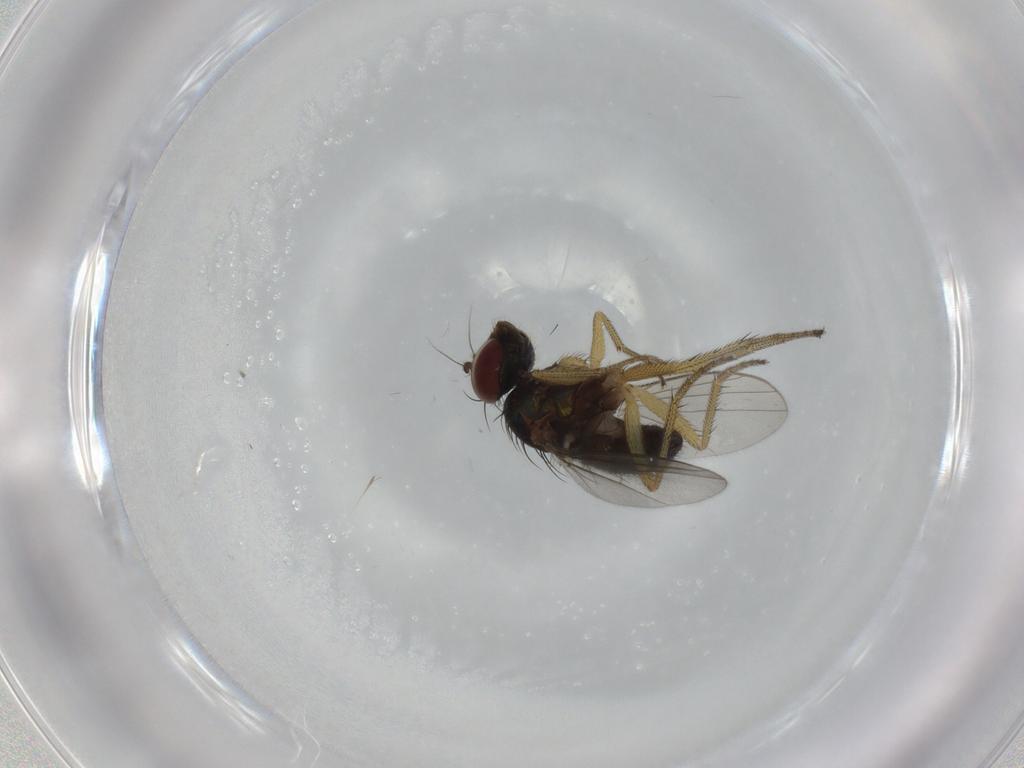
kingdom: Animalia
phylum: Arthropoda
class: Insecta
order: Diptera
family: Dolichopodidae
